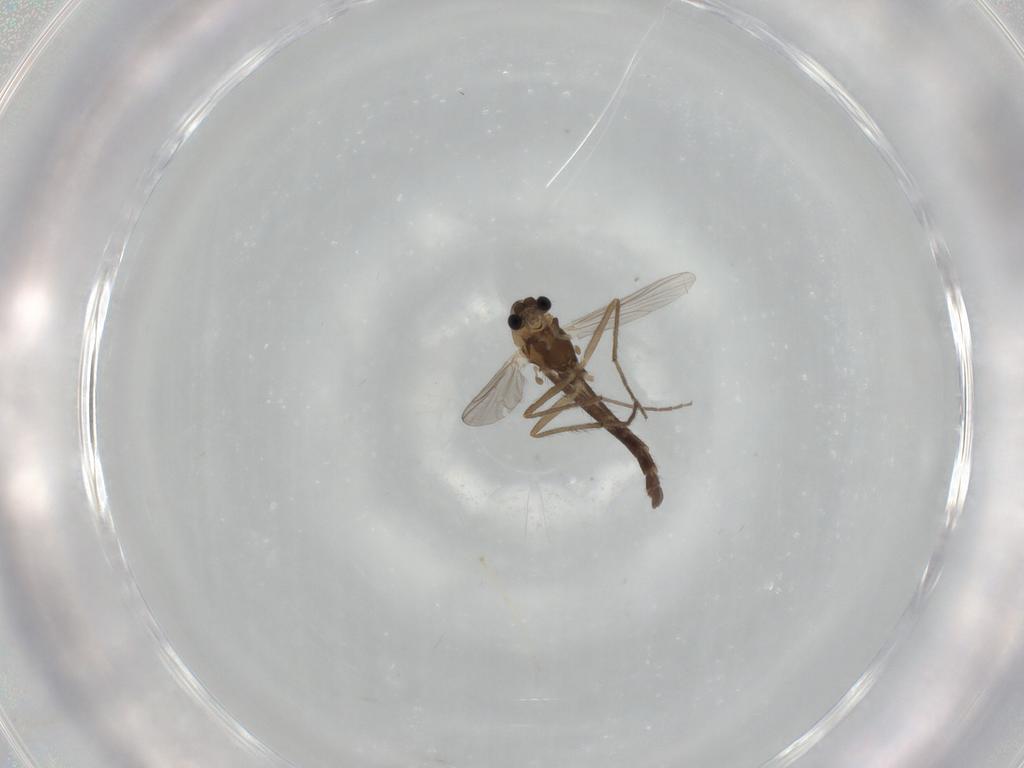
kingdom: Animalia
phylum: Arthropoda
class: Insecta
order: Diptera
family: Chironomidae
